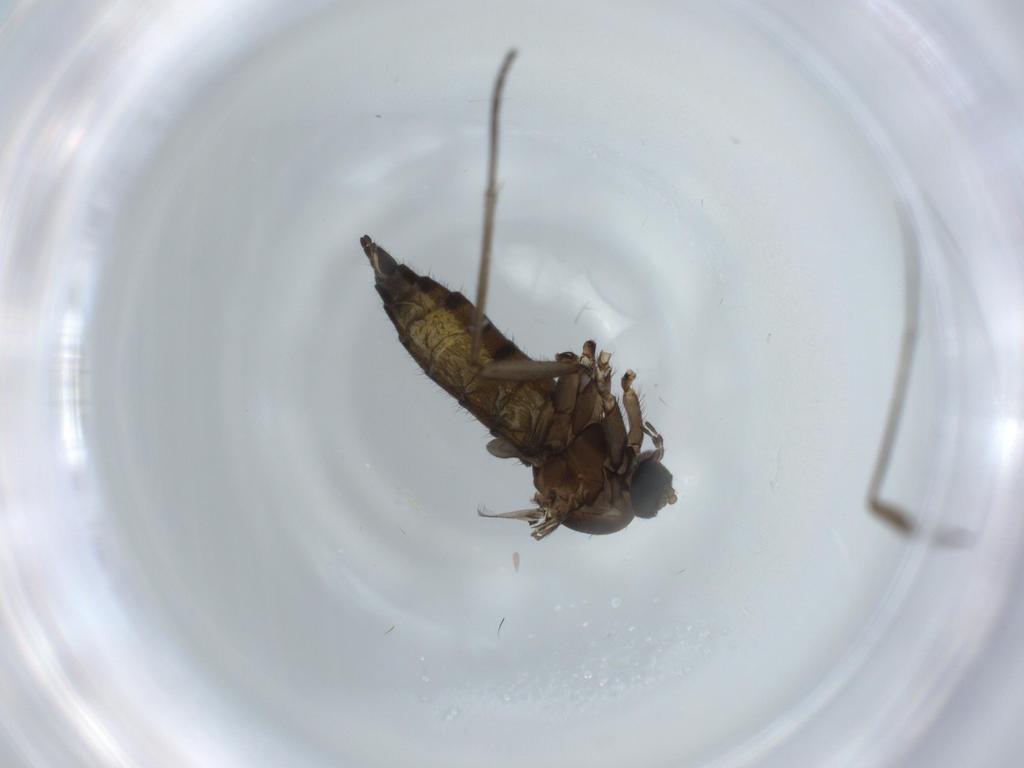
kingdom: Animalia
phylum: Arthropoda
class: Insecta
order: Diptera
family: Sciaridae
